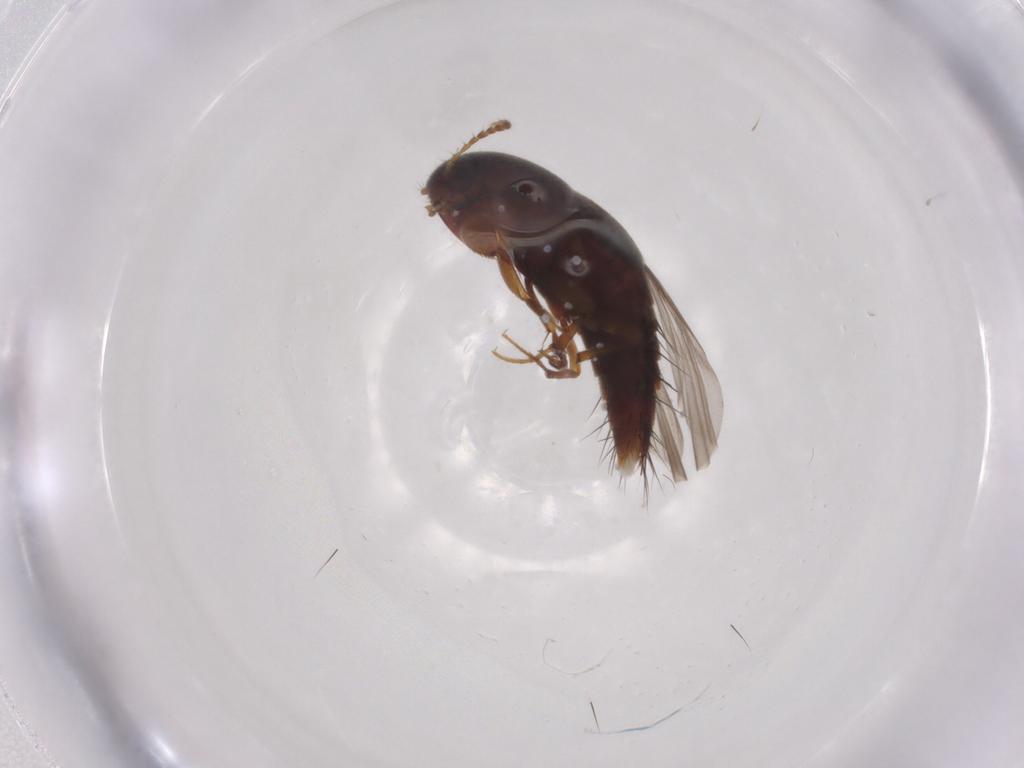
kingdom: Animalia
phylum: Arthropoda
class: Insecta
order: Coleoptera
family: Staphylinidae
